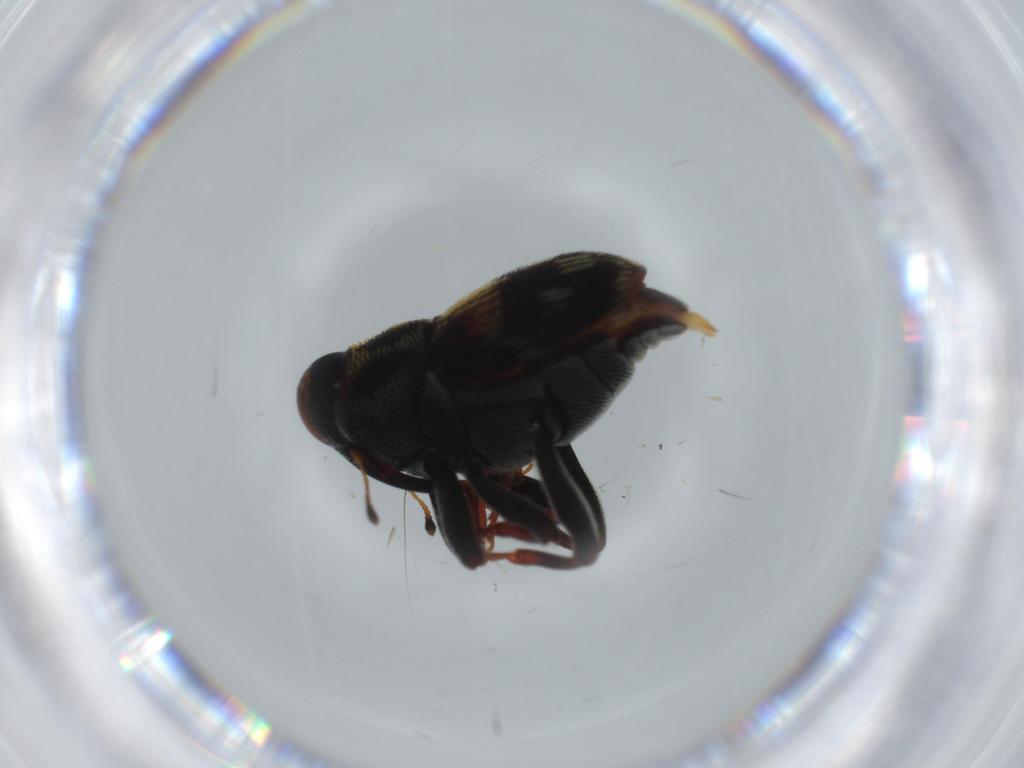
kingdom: Animalia
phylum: Arthropoda
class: Insecta
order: Coleoptera
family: Curculionidae
